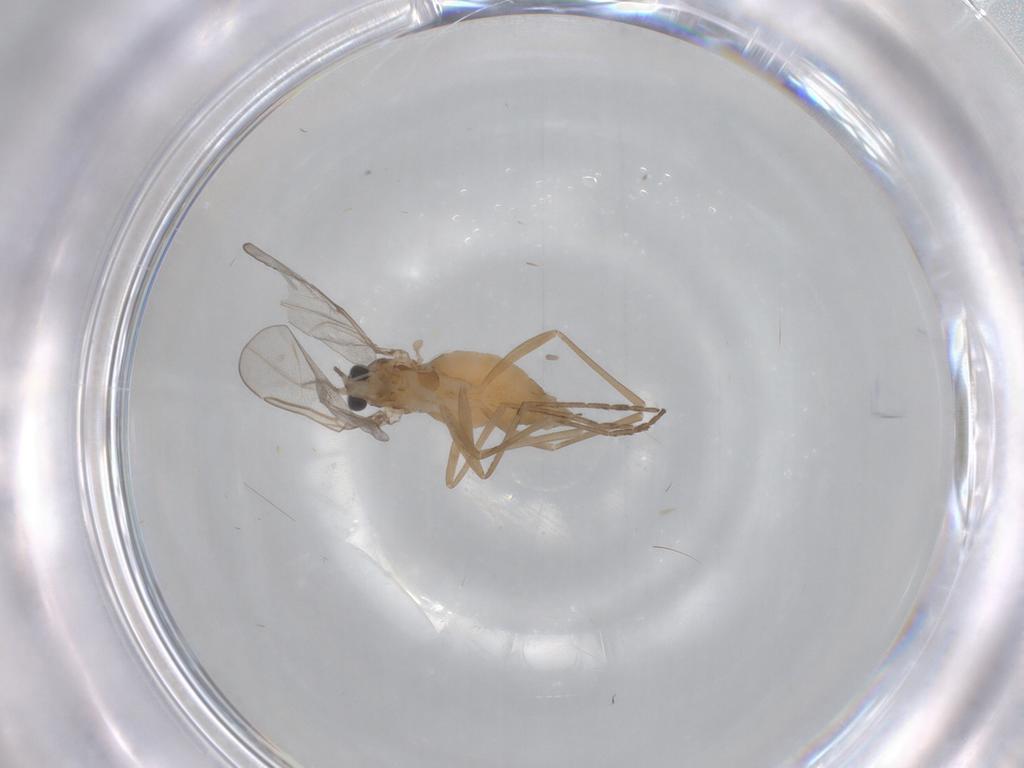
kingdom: Animalia
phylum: Arthropoda
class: Insecta
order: Diptera
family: Cecidomyiidae
